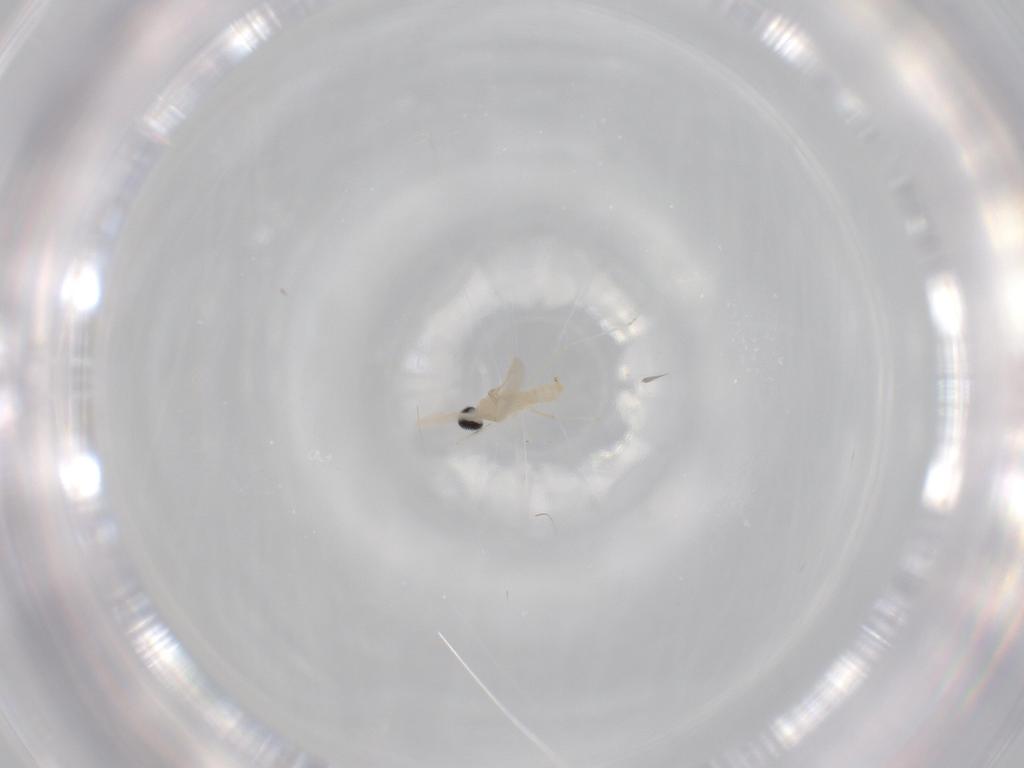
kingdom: Animalia
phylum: Arthropoda
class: Insecta
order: Diptera
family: Cecidomyiidae
